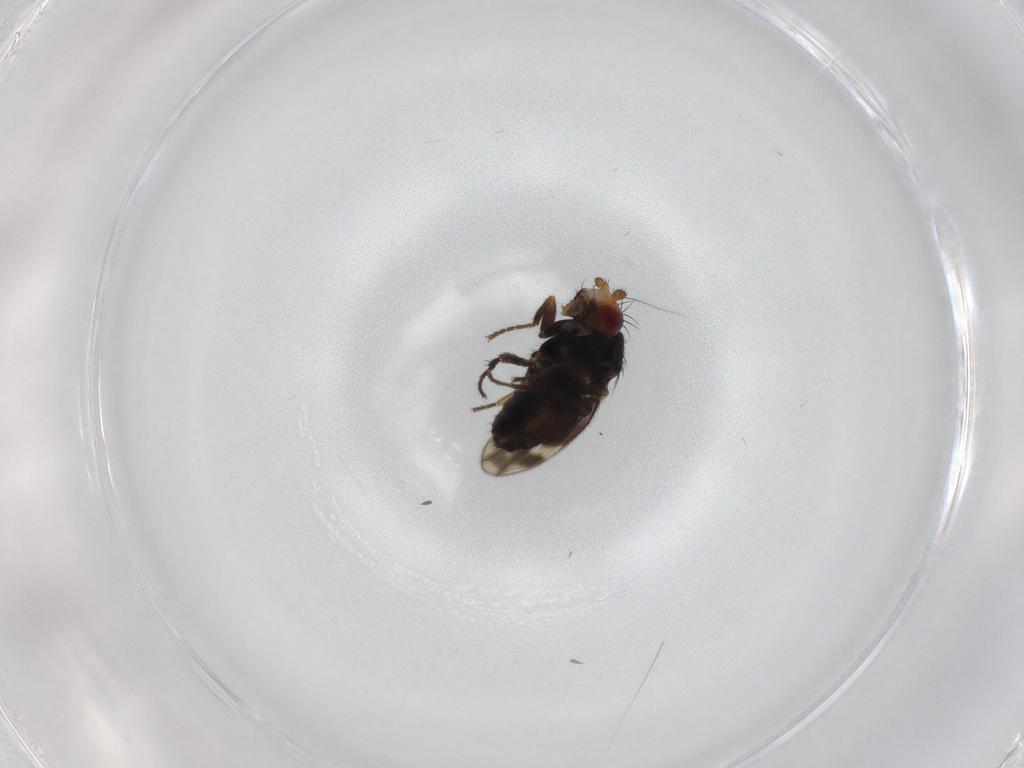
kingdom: Animalia
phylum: Arthropoda
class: Insecta
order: Diptera
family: Sphaeroceridae
